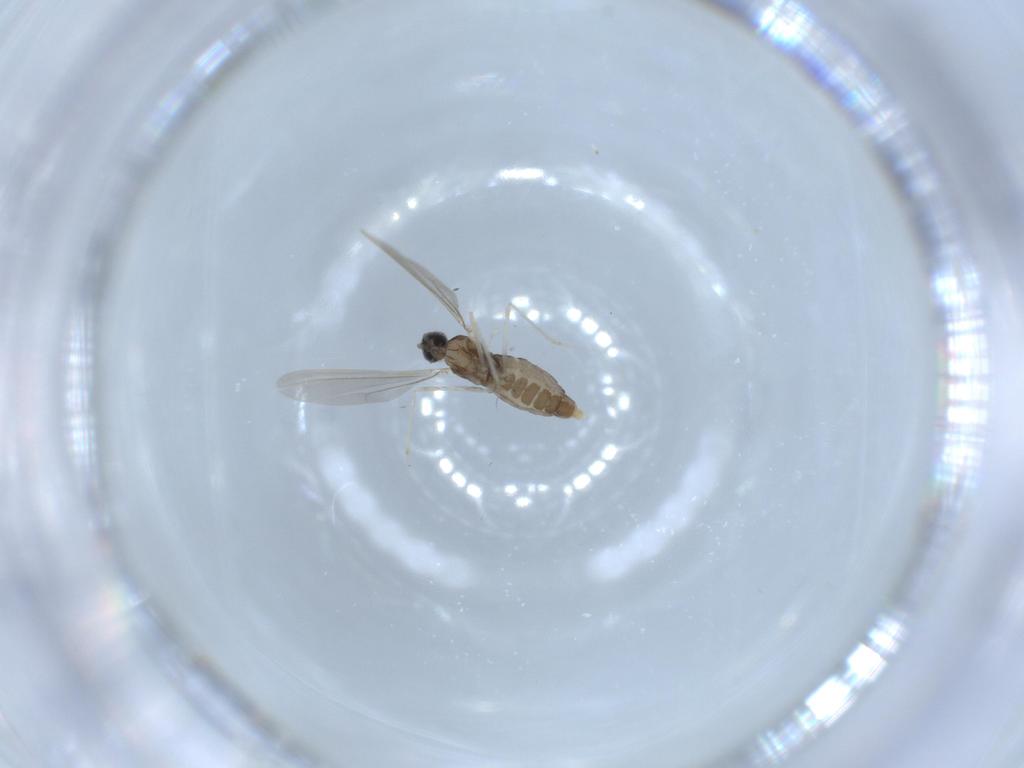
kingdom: Animalia
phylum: Arthropoda
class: Insecta
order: Diptera
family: Cecidomyiidae
